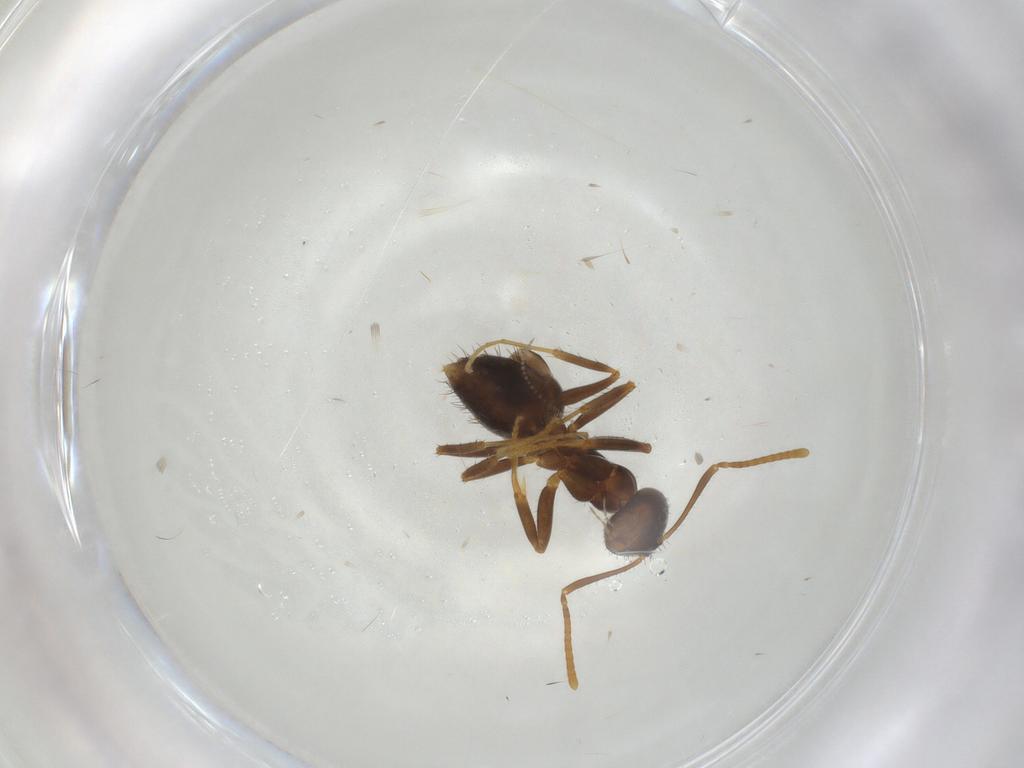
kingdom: Animalia
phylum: Arthropoda
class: Insecta
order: Hymenoptera
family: Formicidae
